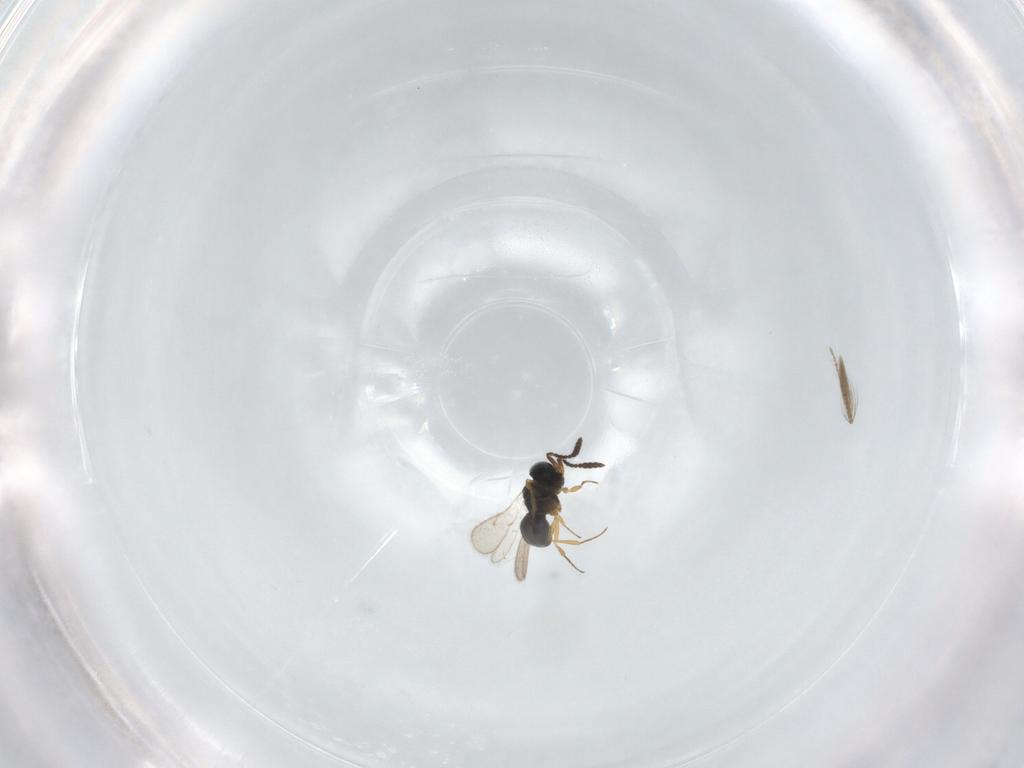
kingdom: Animalia
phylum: Arthropoda
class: Insecta
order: Hymenoptera
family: Scelionidae
